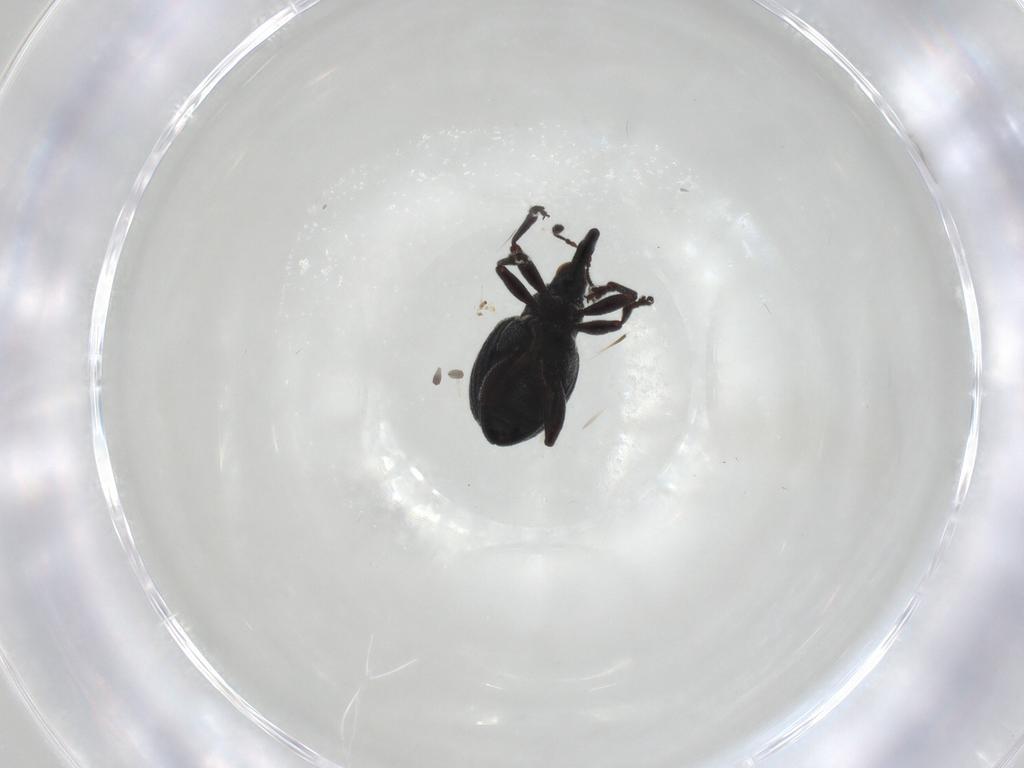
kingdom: Animalia
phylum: Arthropoda
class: Insecta
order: Coleoptera
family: Brentidae
